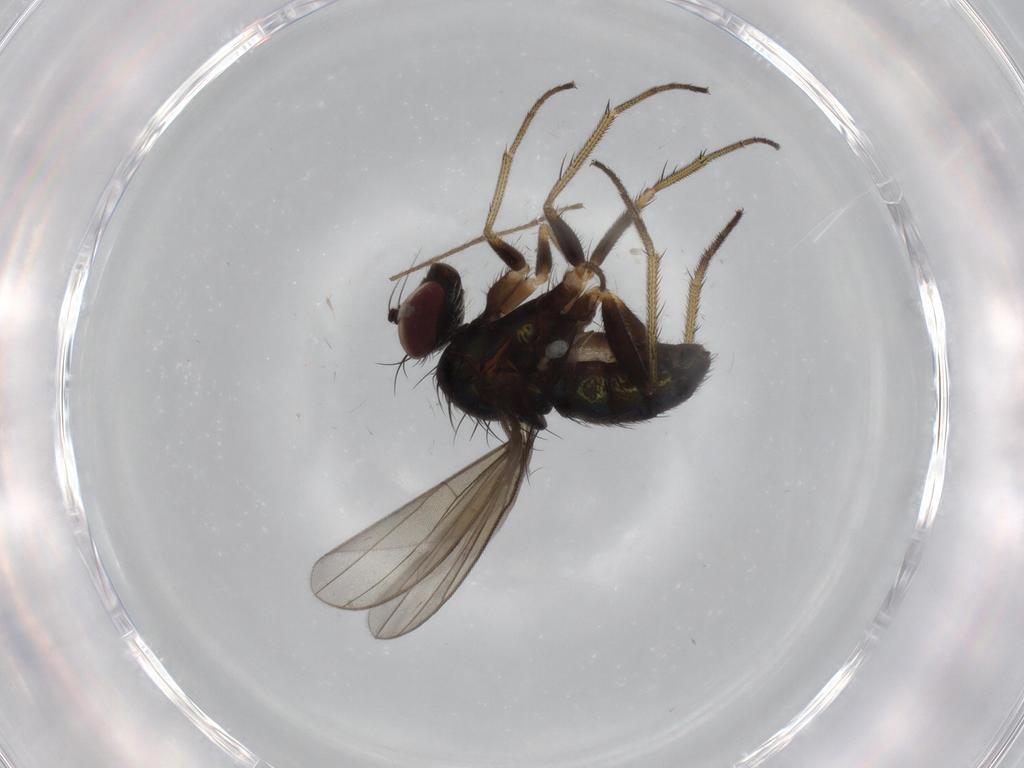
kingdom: Animalia
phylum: Arthropoda
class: Insecta
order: Diptera
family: Dolichopodidae
